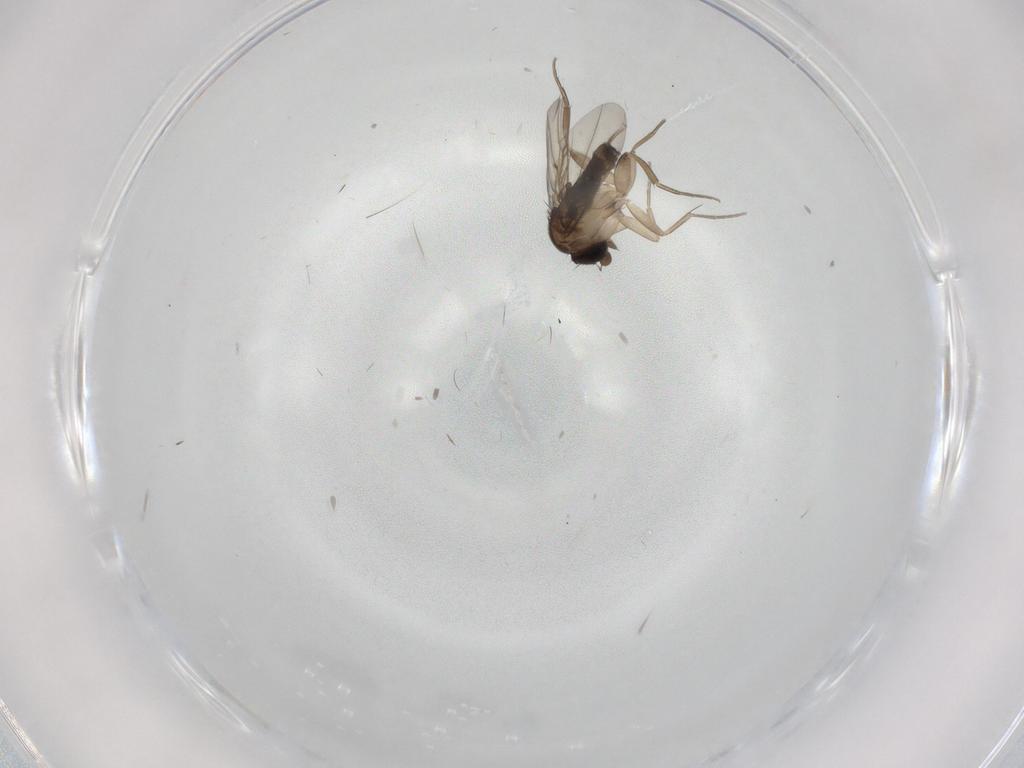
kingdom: Animalia
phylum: Arthropoda
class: Insecta
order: Diptera
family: Phoridae
